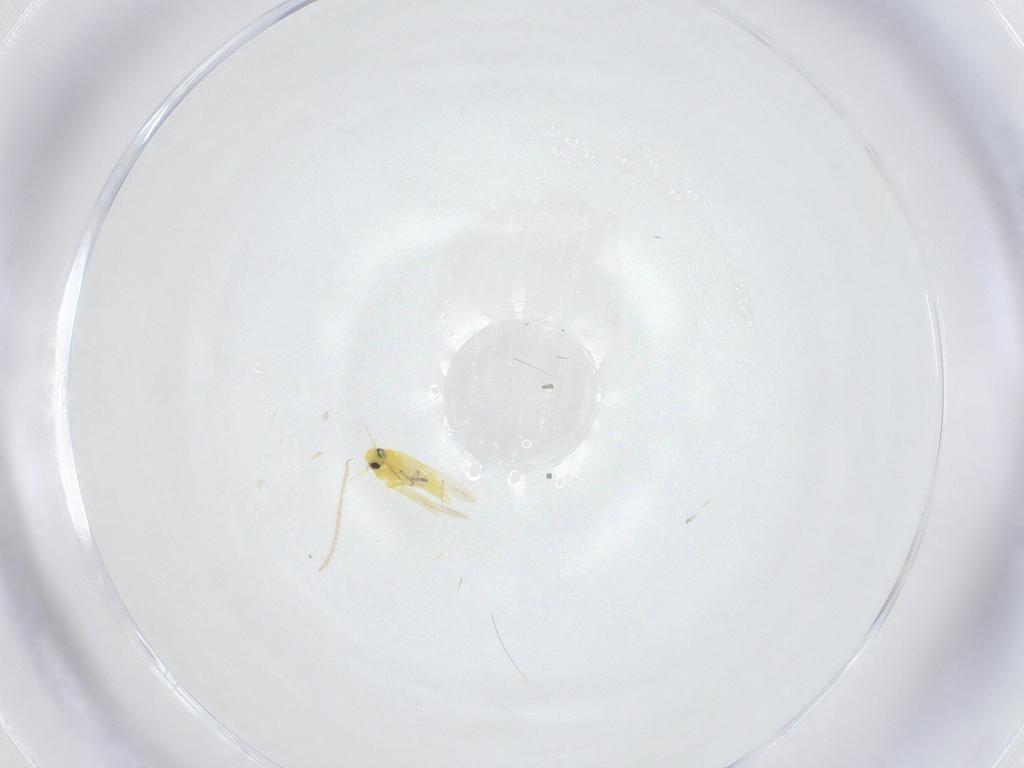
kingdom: Animalia
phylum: Arthropoda
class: Insecta
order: Hemiptera
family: Aleyrodidae
